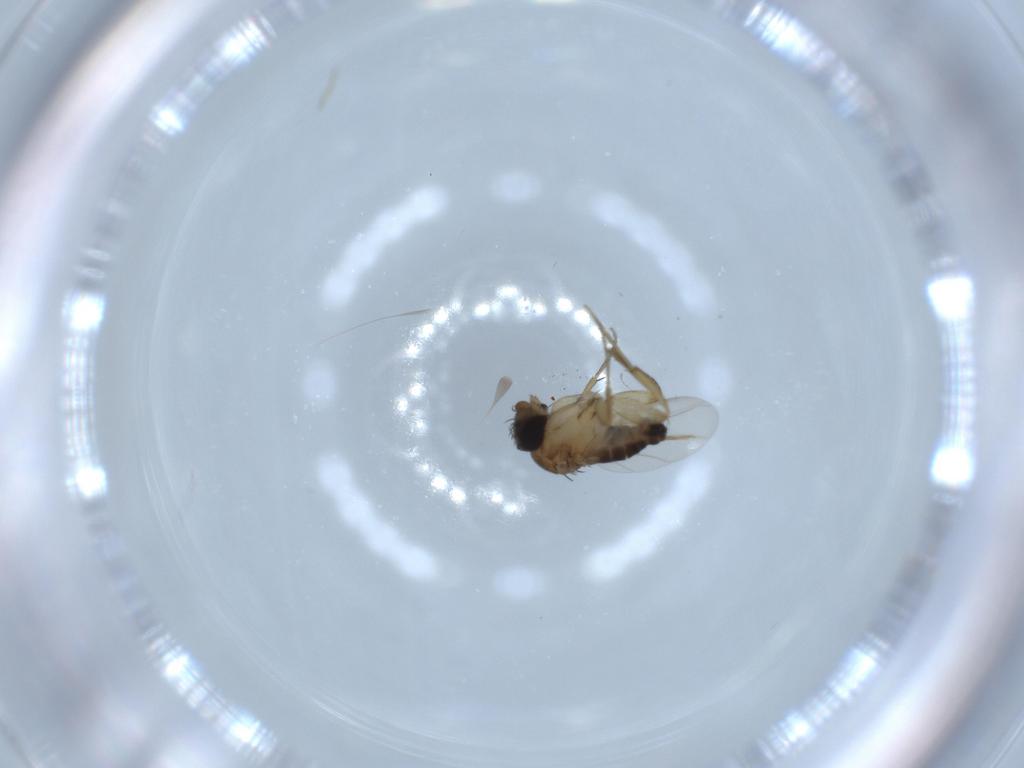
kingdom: Animalia
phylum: Arthropoda
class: Insecta
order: Diptera
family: Phoridae
